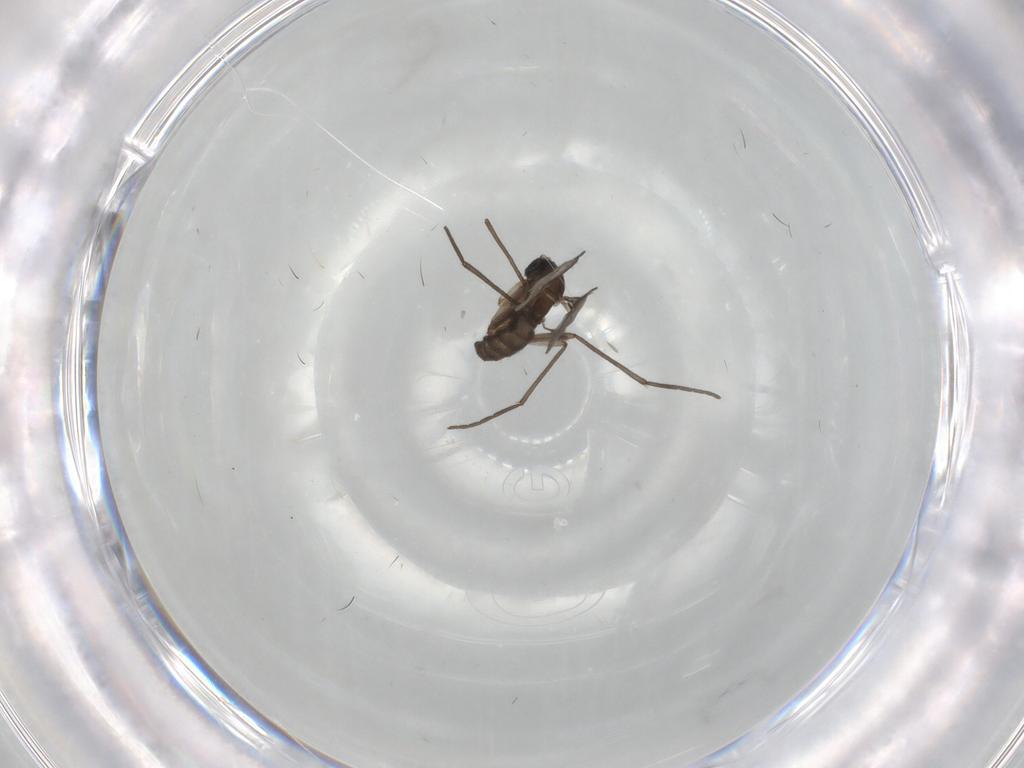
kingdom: Animalia
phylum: Arthropoda
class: Insecta
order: Diptera
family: Sciaridae
